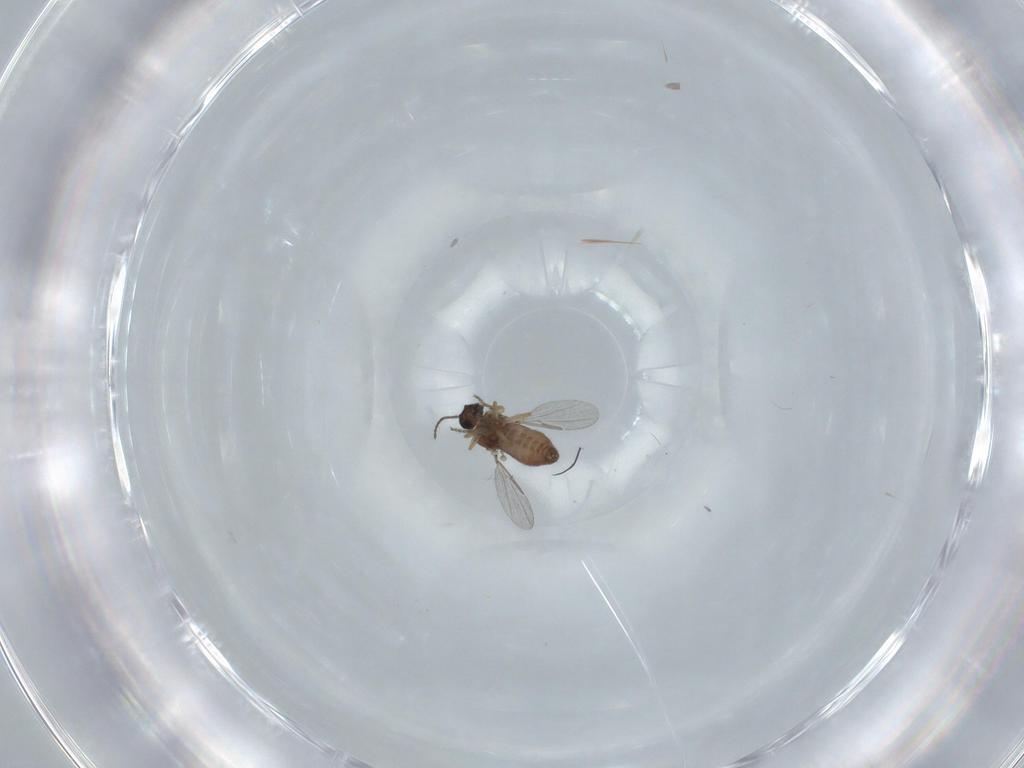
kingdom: Animalia
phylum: Arthropoda
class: Insecta
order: Diptera
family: Ceratopogonidae
